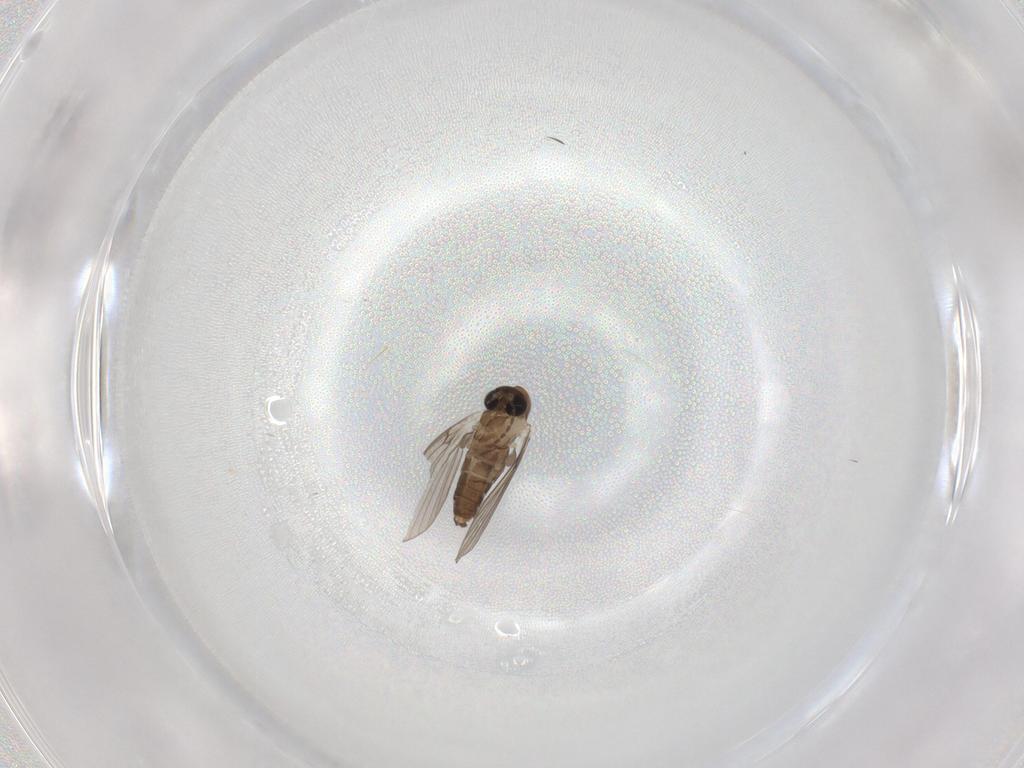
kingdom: Animalia
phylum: Arthropoda
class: Insecta
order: Diptera
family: Psychodidae
